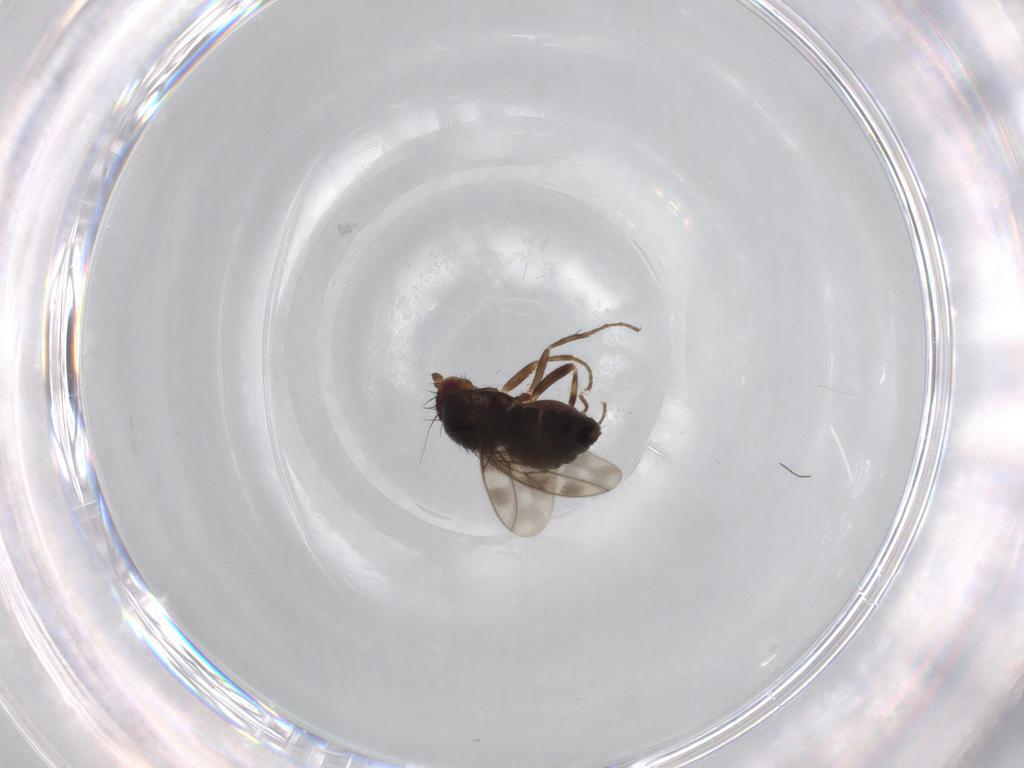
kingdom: Animalia
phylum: Arthropoda
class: Insecta
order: Diptera
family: Sphaeroceridae
